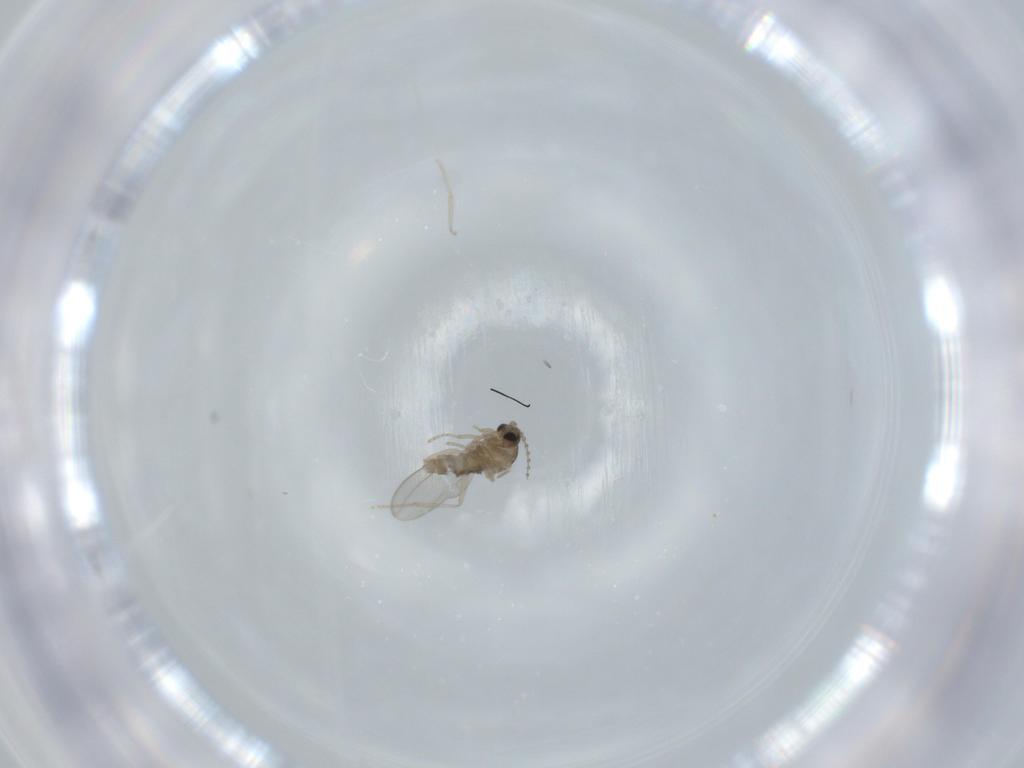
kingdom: Animalia
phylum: Arthropoda
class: Insecta
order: Diptera
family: Cecidomyiidae
